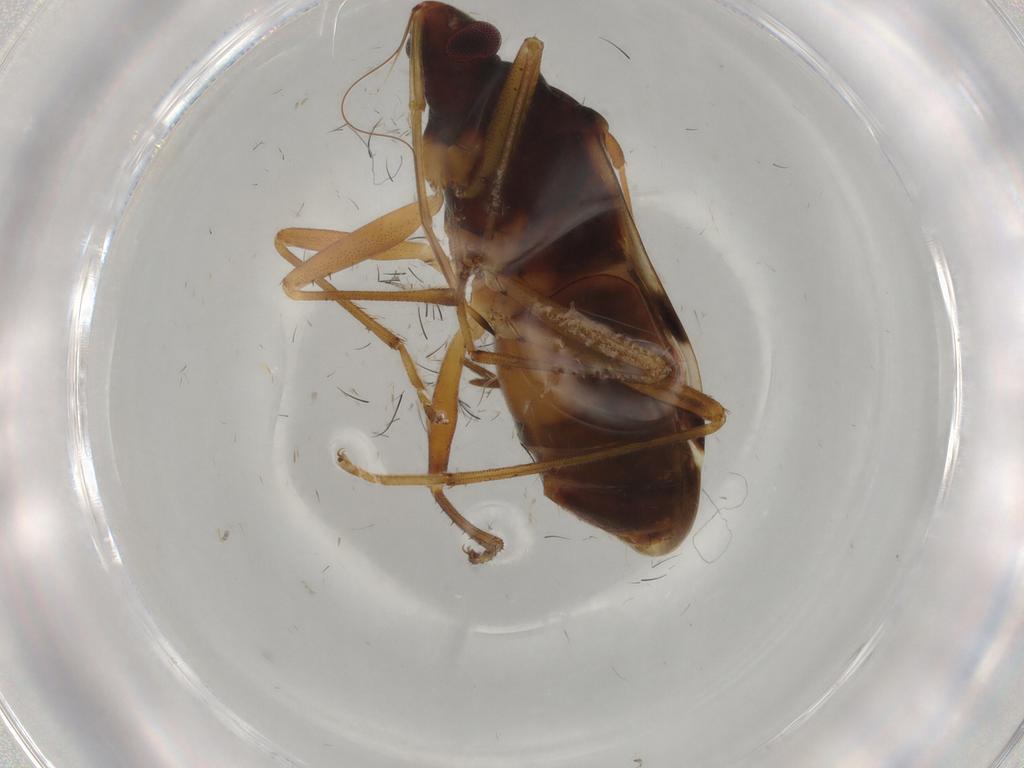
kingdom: Animalia
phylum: Arthropoda
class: Insecta
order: Hemiptera
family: Rhyparochromidae
